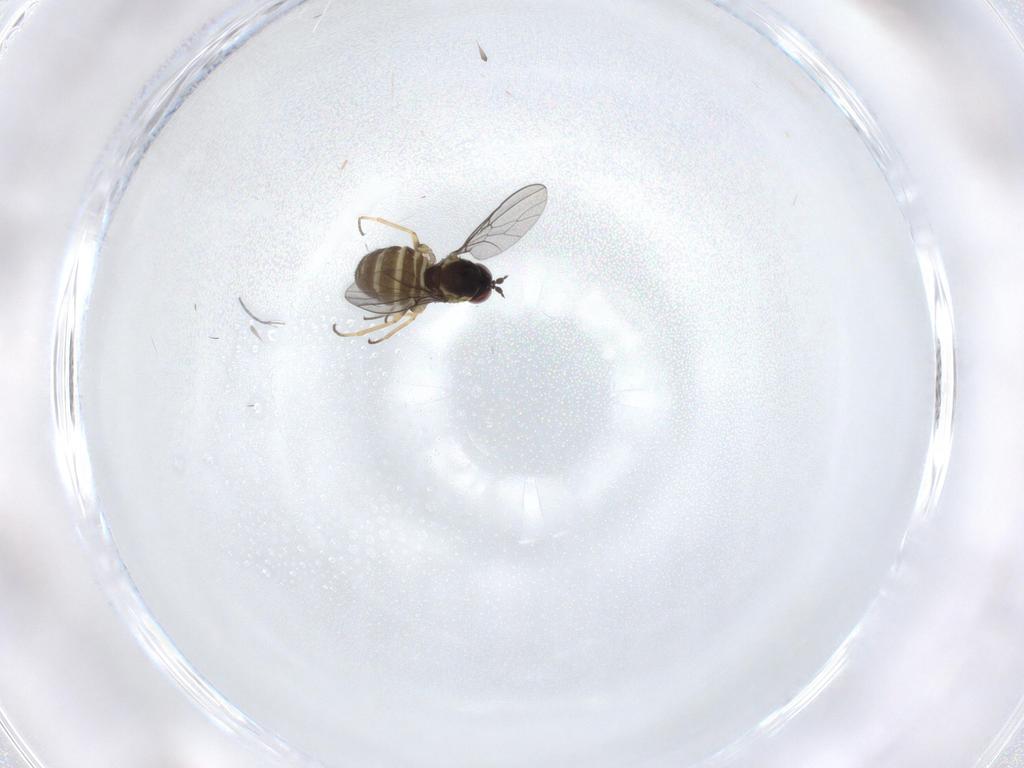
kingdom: Animalia
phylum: Arthropoda
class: Insecta
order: Diptera
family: Bombyliidae
